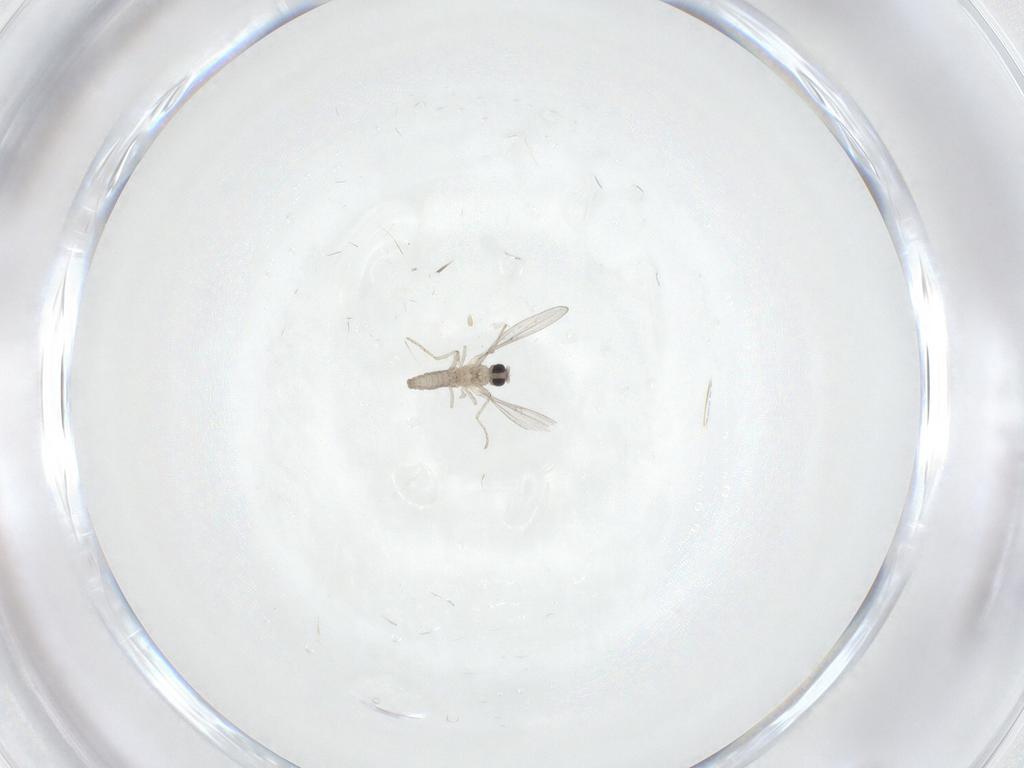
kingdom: Animalia
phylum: Arthropoda
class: Insecta
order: Diptera
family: Cecidomyiidae
